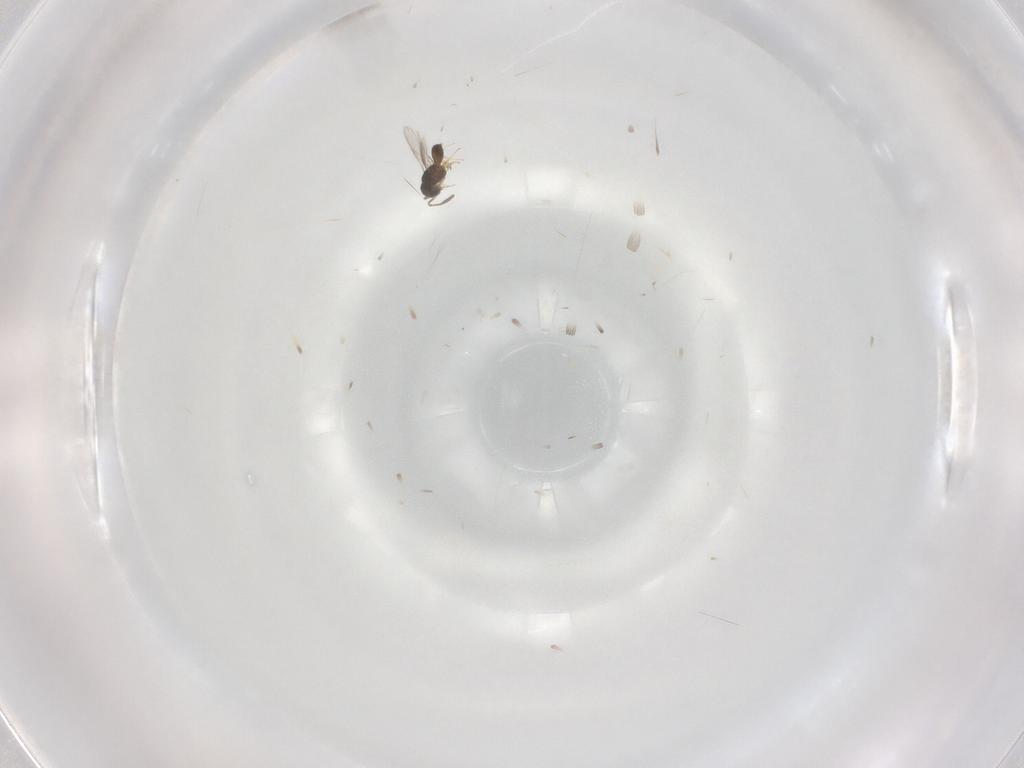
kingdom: Animalia
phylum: Arthropoda
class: Insecta
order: Hymenoptera
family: Scelionidae
